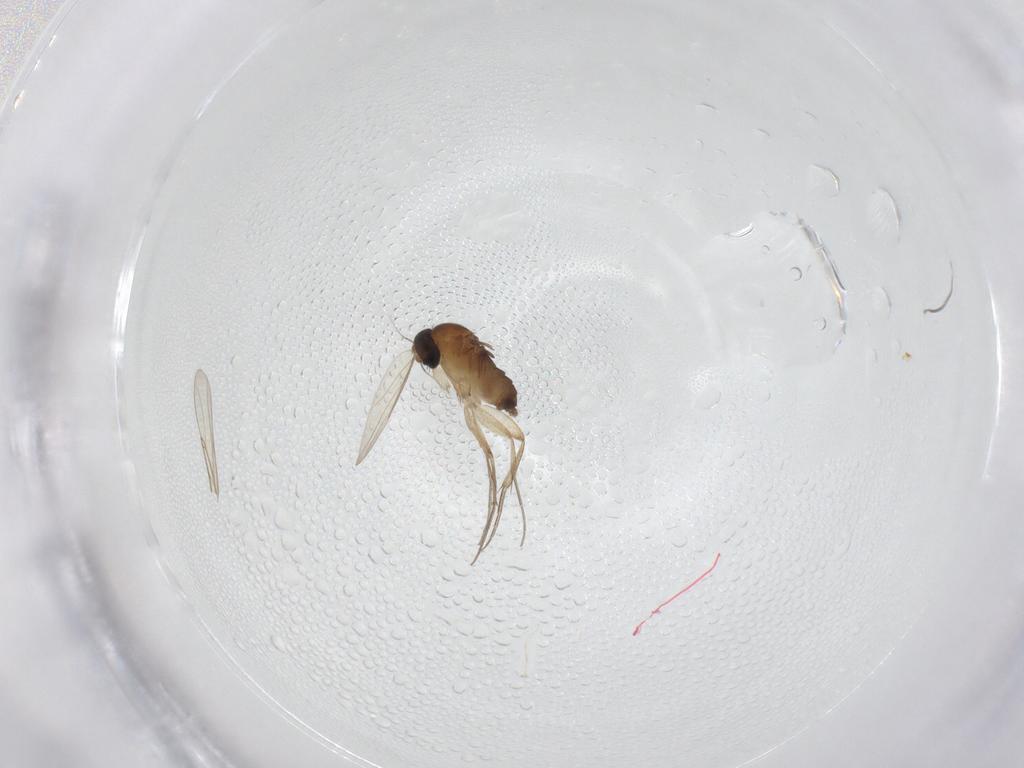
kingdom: Animalia
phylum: Arthropoda
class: Insecta
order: Diptera
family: Phoridae
